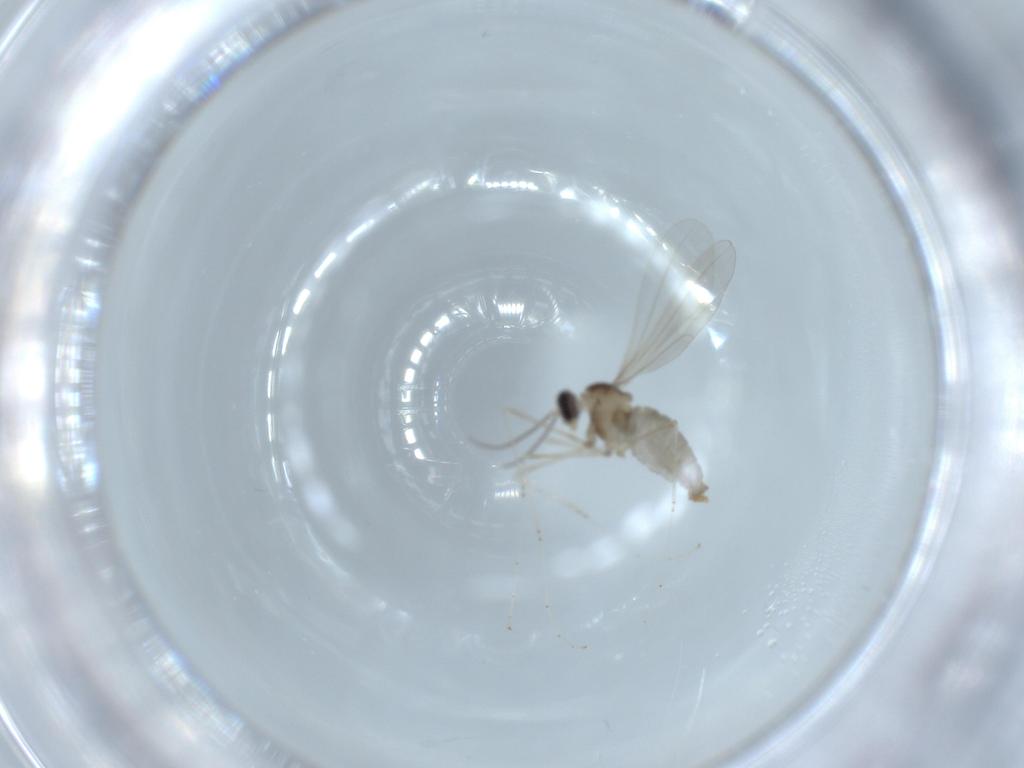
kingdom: Animalia
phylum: Arthropoda
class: Insecta
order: Diptera
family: Cecidomyiidae
